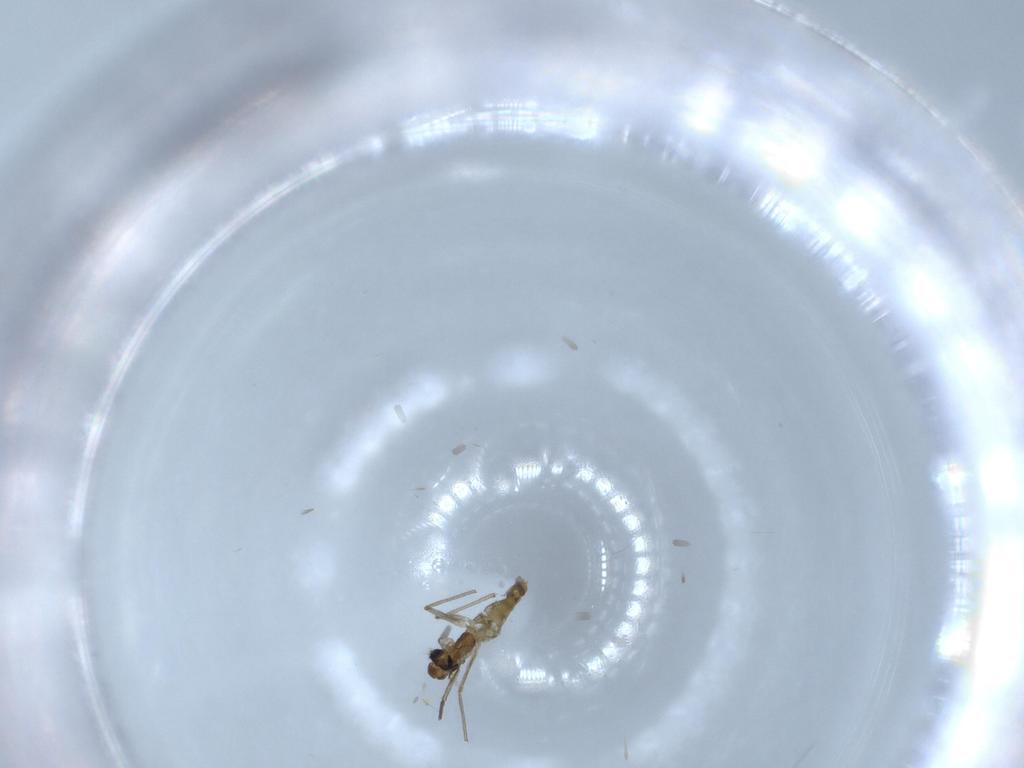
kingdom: Animalia
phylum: Arthropoda
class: Insecta
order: Diptera
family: Chironomidae
